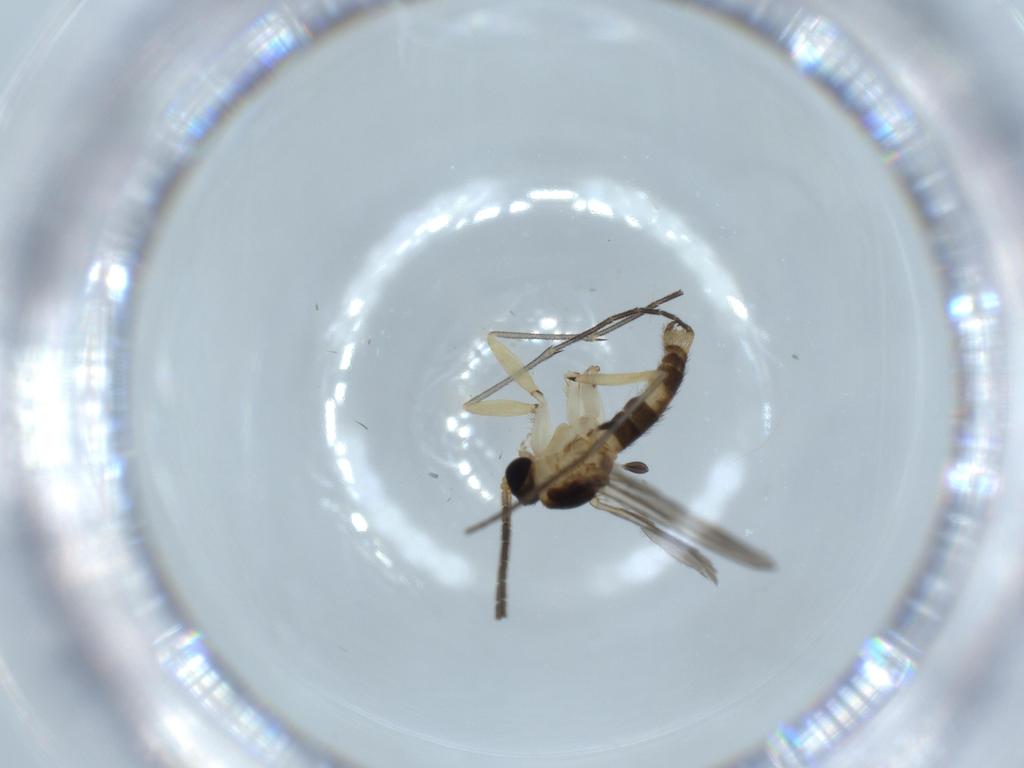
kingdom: Animalia
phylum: Arthropoda
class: Insecta
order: Diptera
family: Sciaridae
